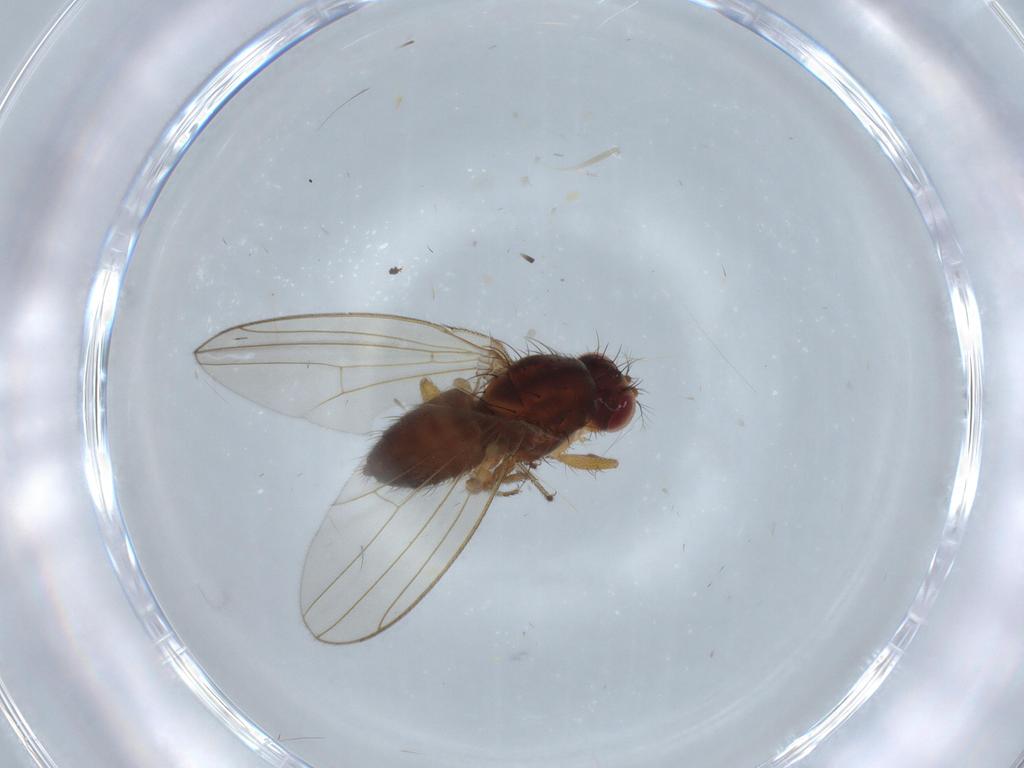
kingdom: Animalia
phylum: Arthropoda
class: Insecta
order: Diptera
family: Drosophilidae
